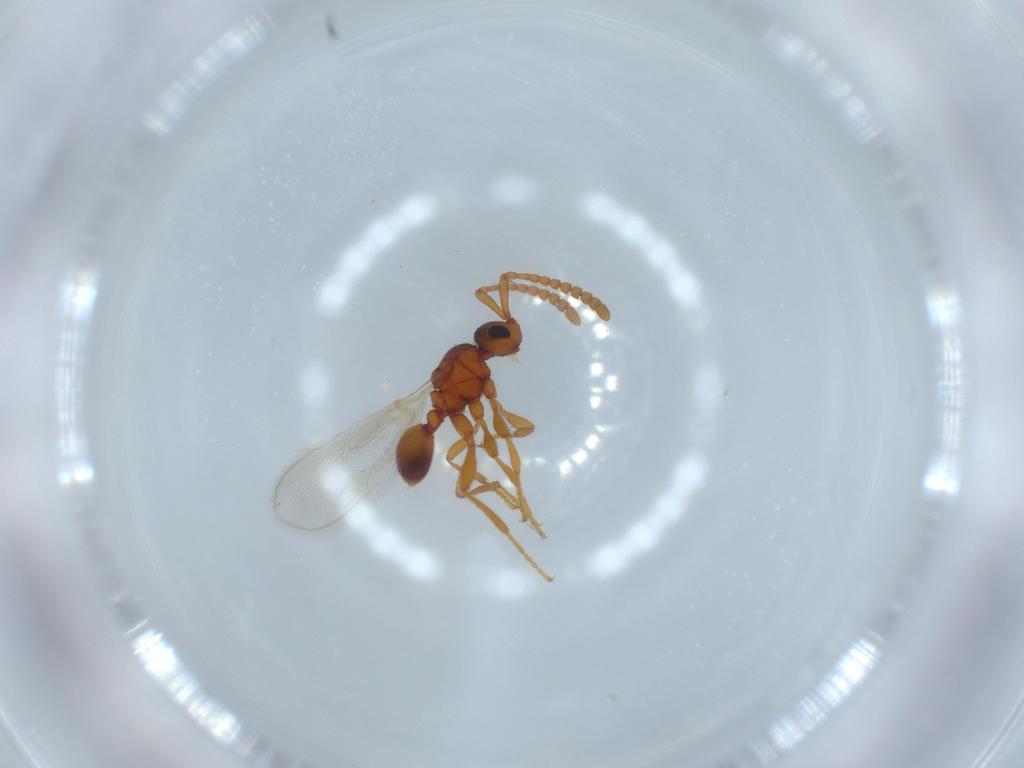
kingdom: Animalia
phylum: Arthropoda
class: Insecta
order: Hymenoptera
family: Diapriidae
